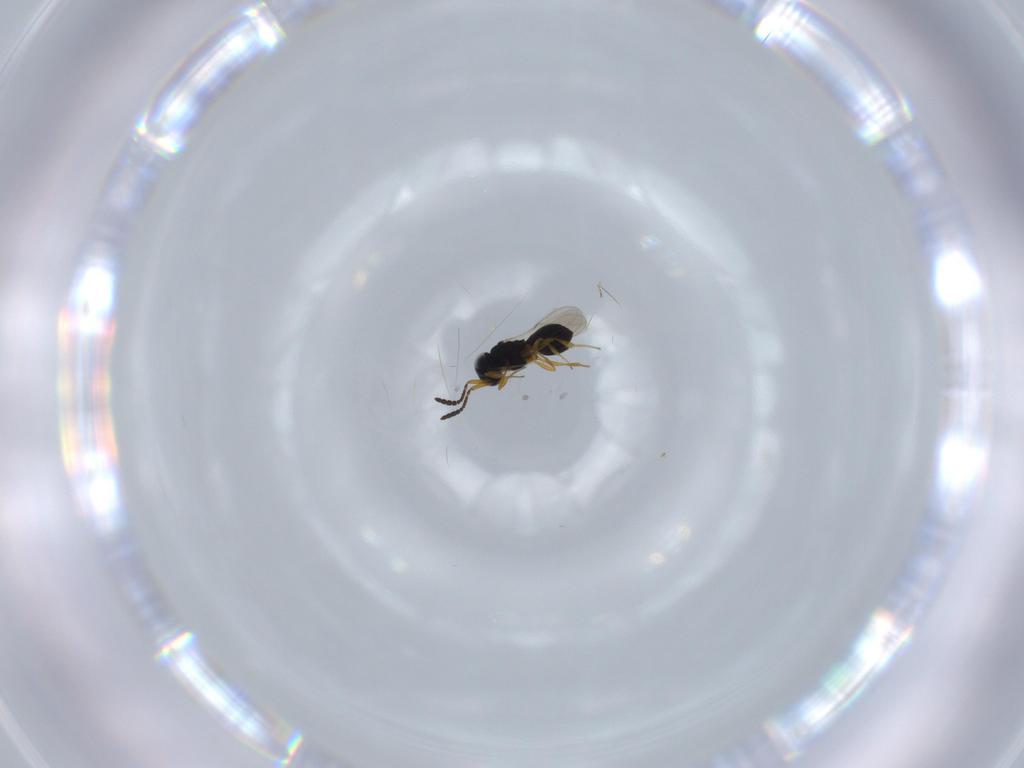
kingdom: Animalia
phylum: Arthropoda
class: Insecta
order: Hymenoptera
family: Scelionidae
